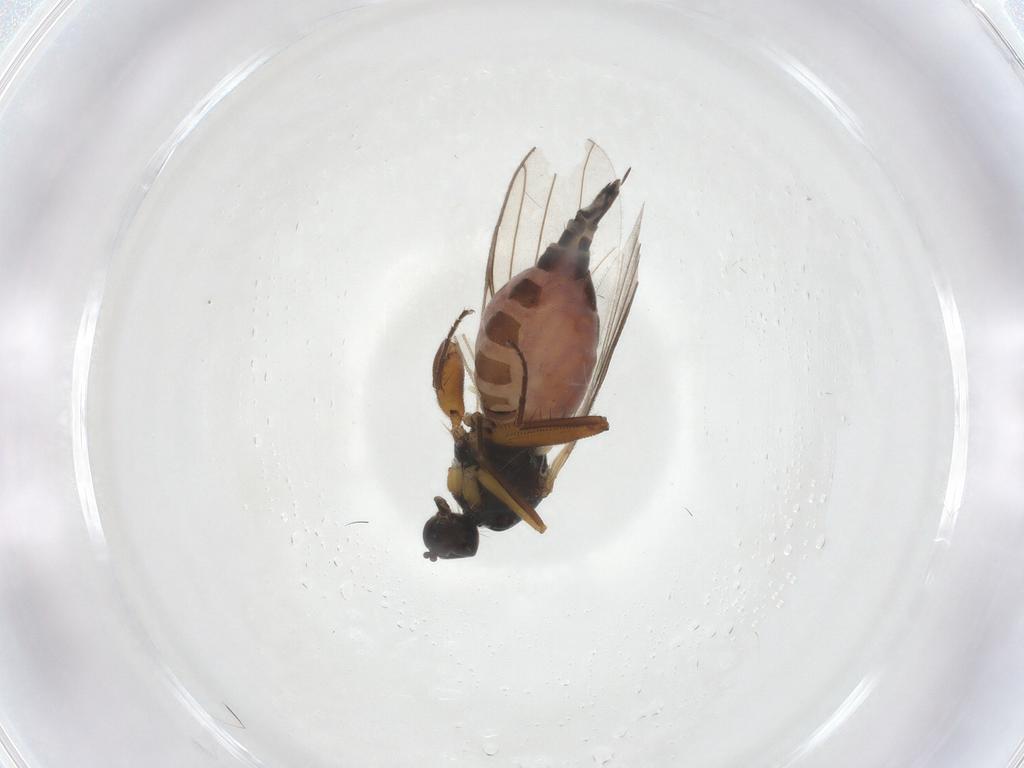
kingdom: Animalia
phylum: Arthropoda
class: Insecta
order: Diptera
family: Hybotidae
